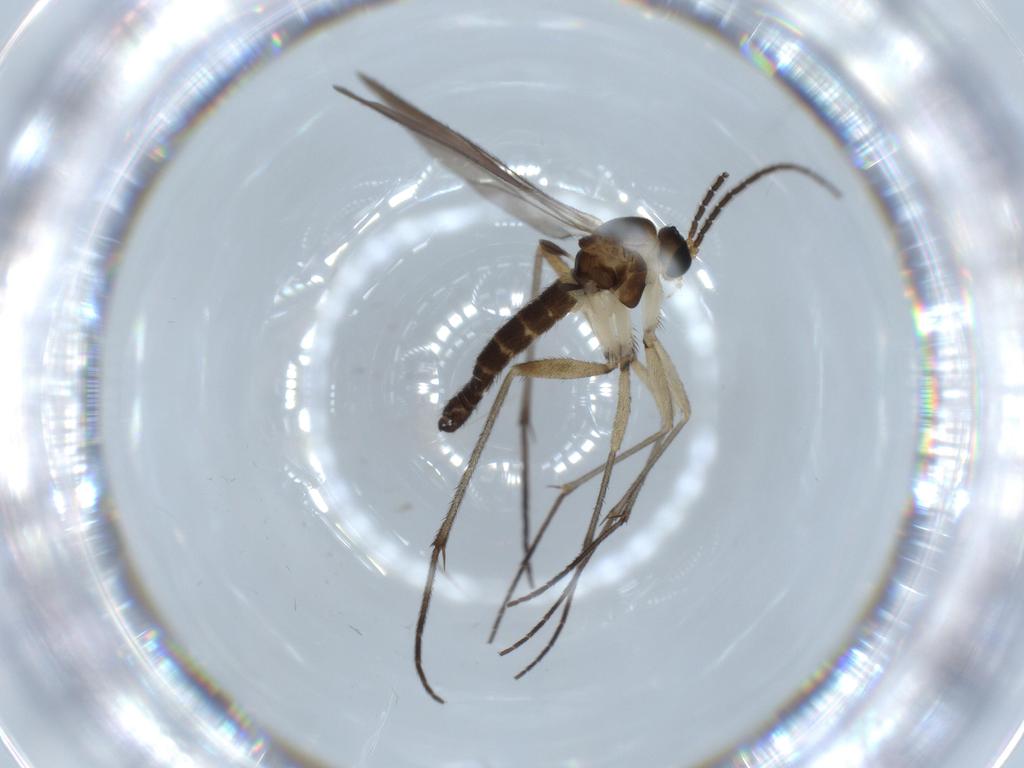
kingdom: Animalia
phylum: Arthropoda
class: Insecta
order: Diptera
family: Sciaridae
